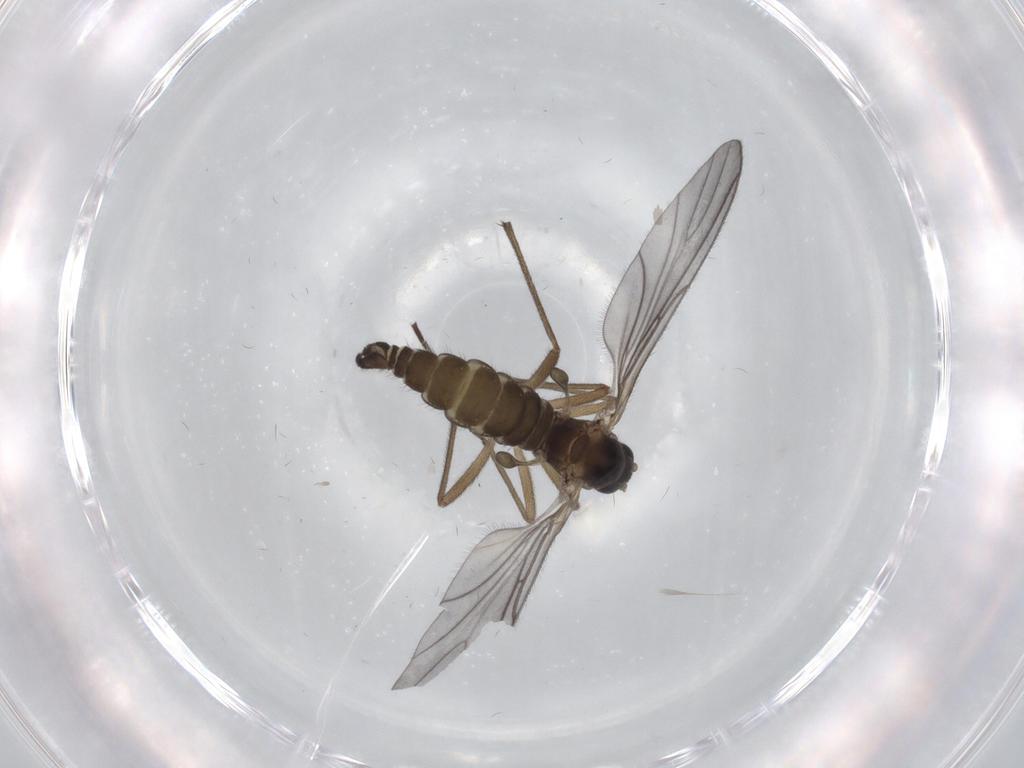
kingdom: Animalia
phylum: Arthropoda
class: Insecta
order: Diptera
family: Sciaridae
